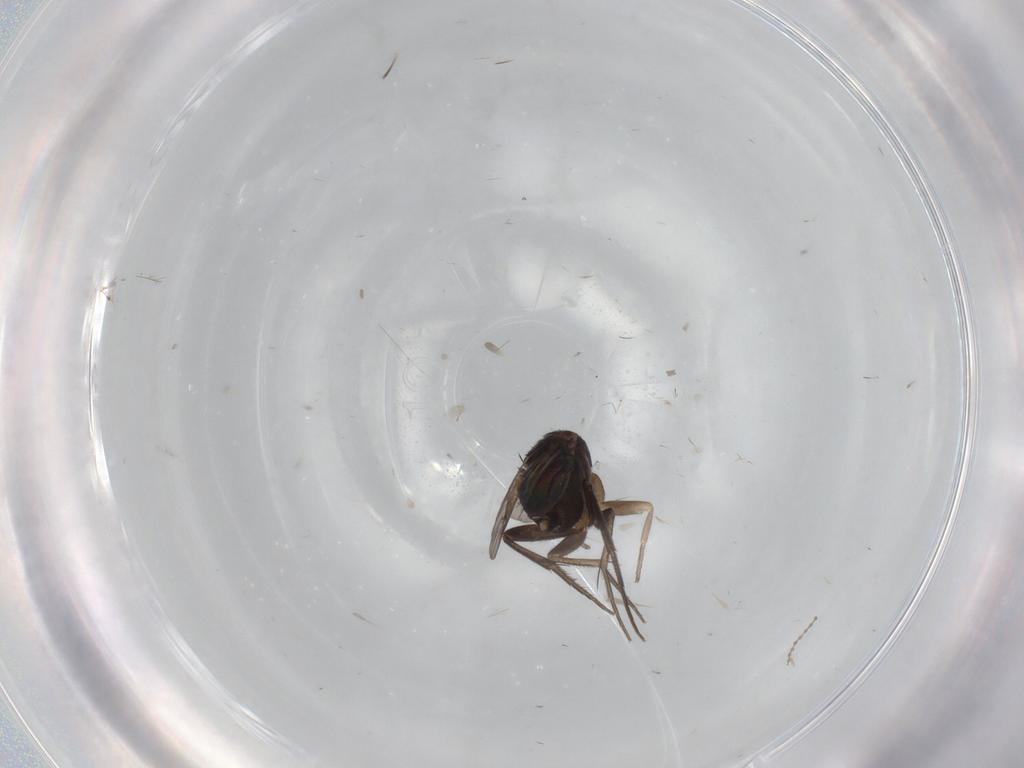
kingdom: Animalia
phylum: Arthropoda
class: Insecta
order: Diptera
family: Phoridae
